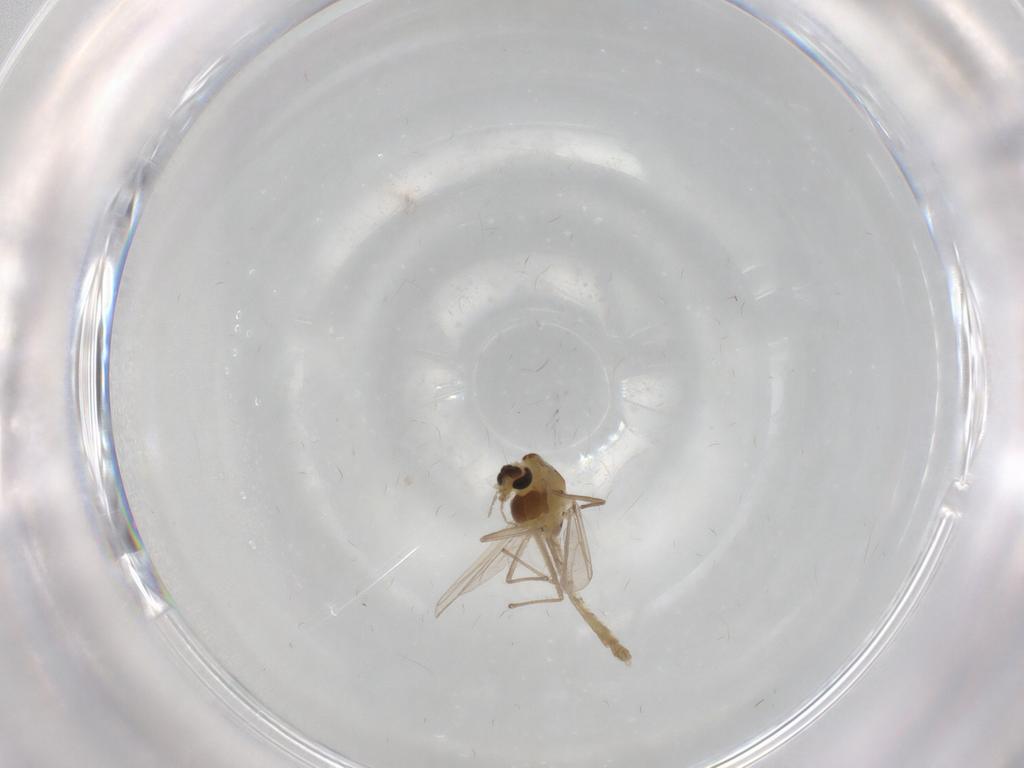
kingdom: Animalia
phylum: Arthropoda
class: Insecta
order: Diptera
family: Chironomidae
